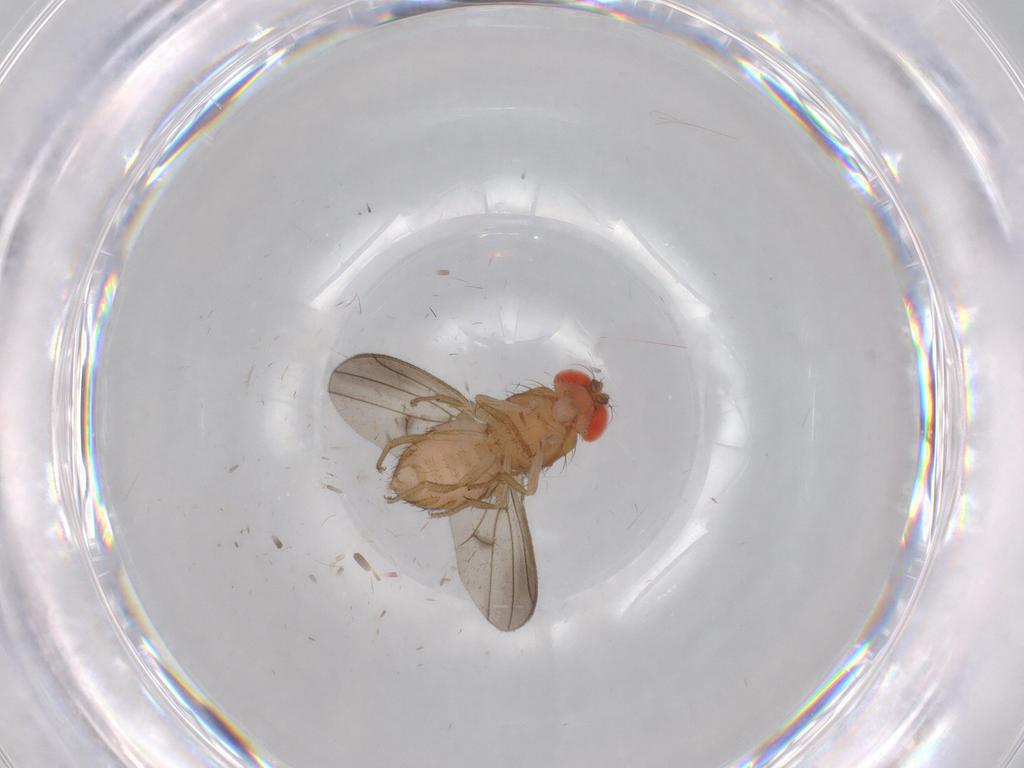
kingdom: Animalia
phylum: Arthropoda
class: Insecta
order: Diptera
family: Drosophilidae
